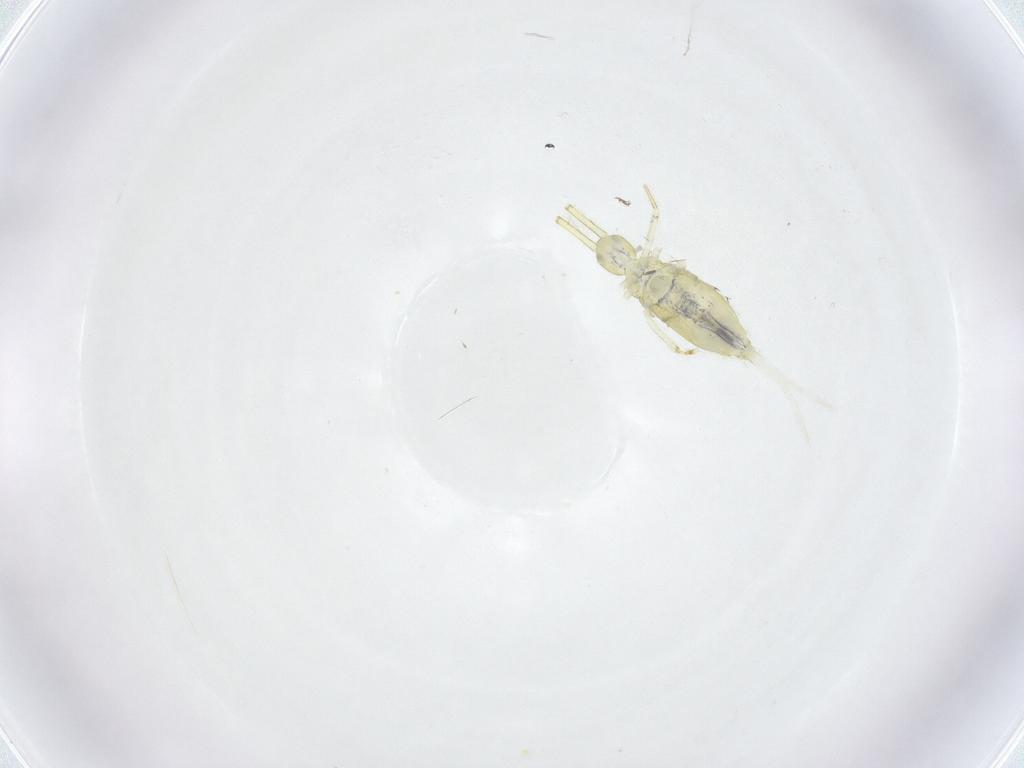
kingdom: Animalia
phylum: Arthropoda
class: Collembola
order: Entomobryomorpha
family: Paronellidae
